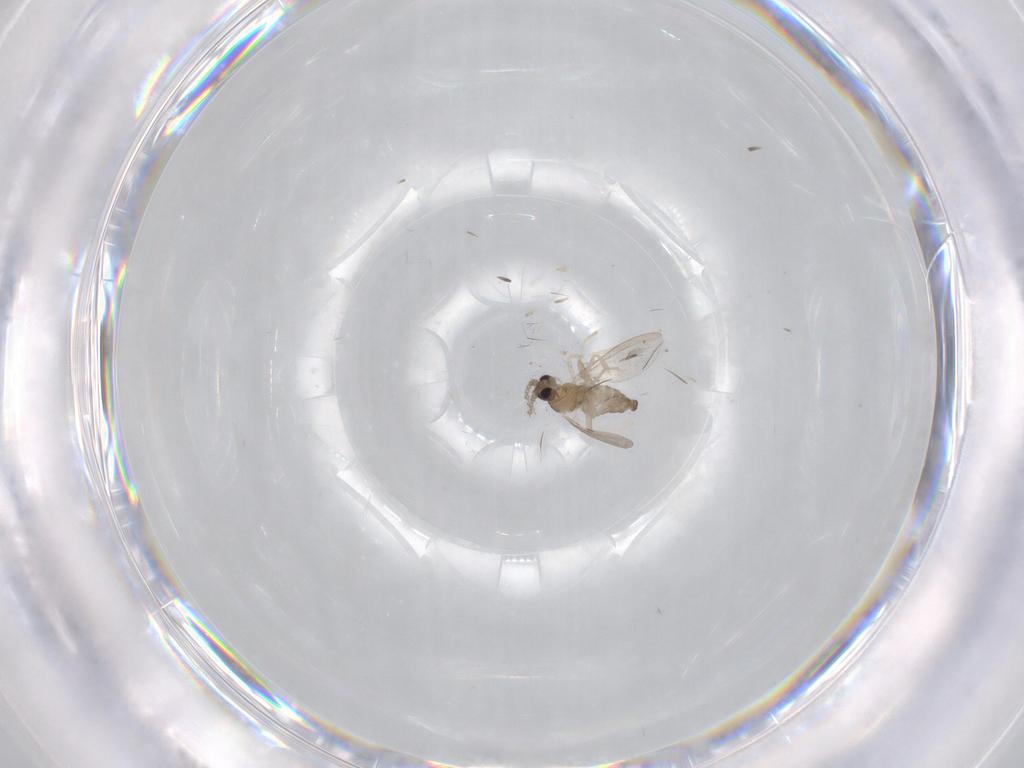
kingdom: Animalia
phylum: Arthropoda
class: Insecta
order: Diptera
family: Cecidomyiidae
